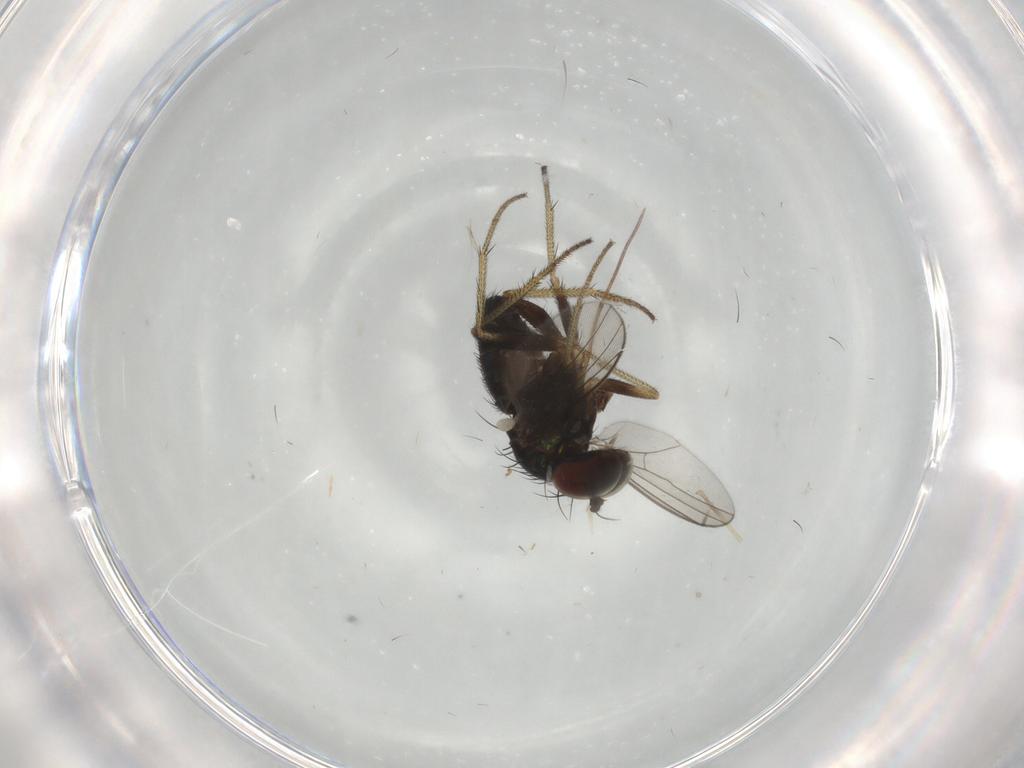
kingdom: Animalia
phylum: Arthropoda
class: Insecta
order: Diptera
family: Chironomidae
